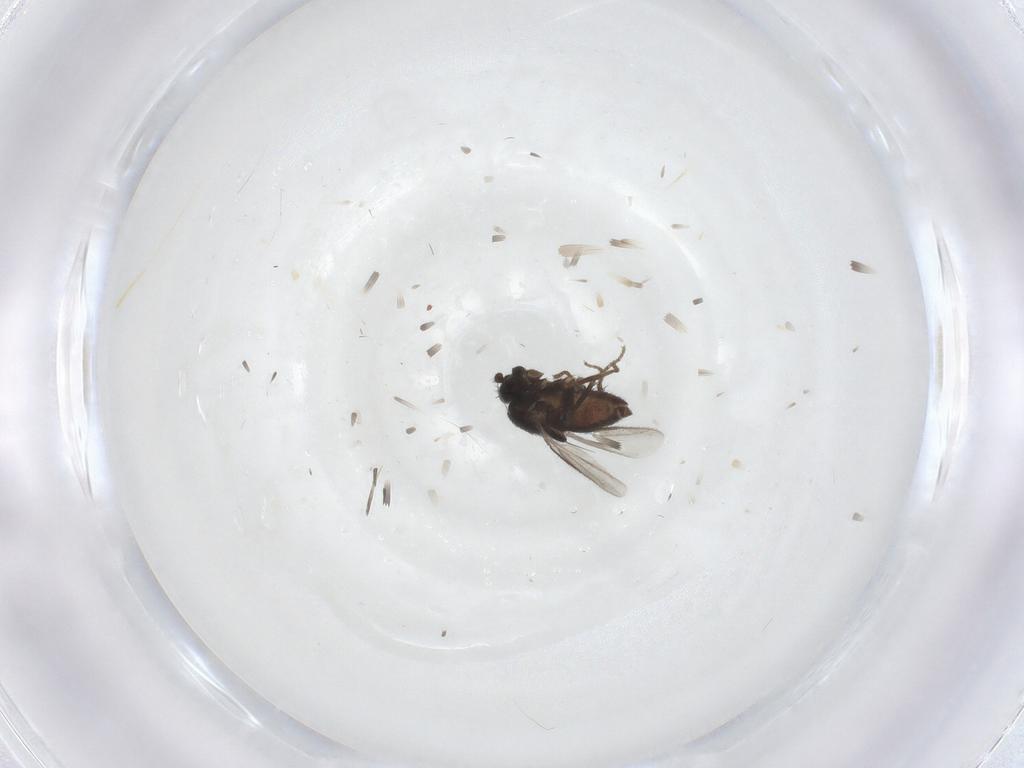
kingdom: Animalia
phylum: Arthropoda
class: Insecta
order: Diptera
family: Sphaeroceridae
